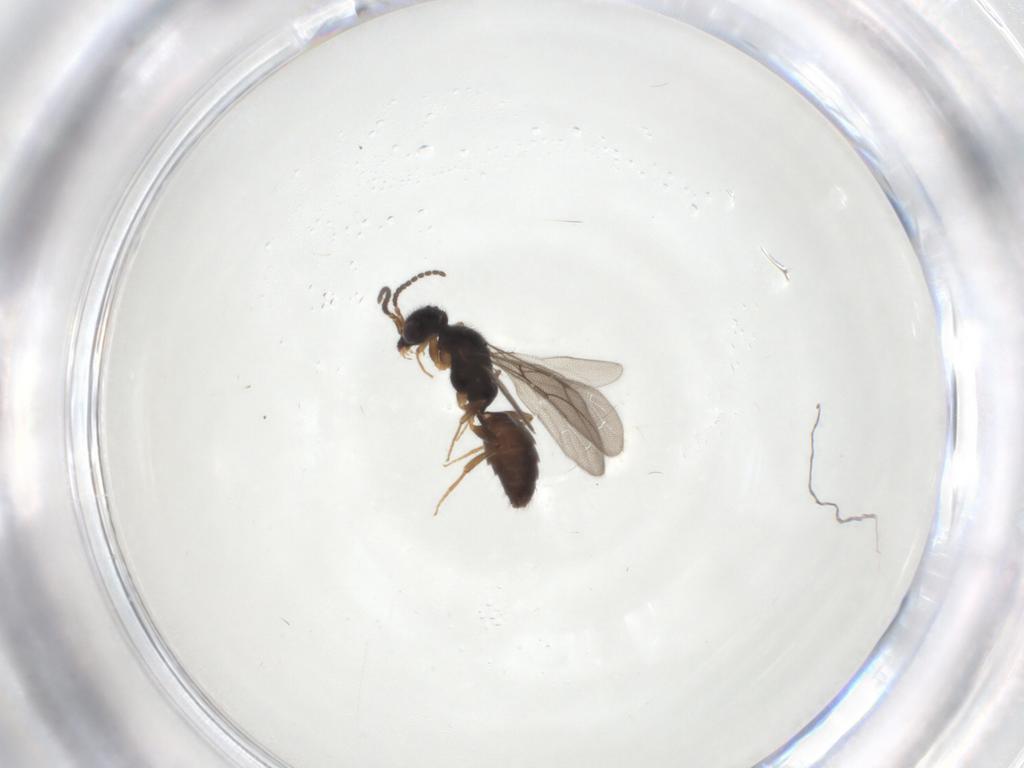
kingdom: Animalia
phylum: Arthropoda
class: Insecta
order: Hymenoptera
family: Bethylidae
